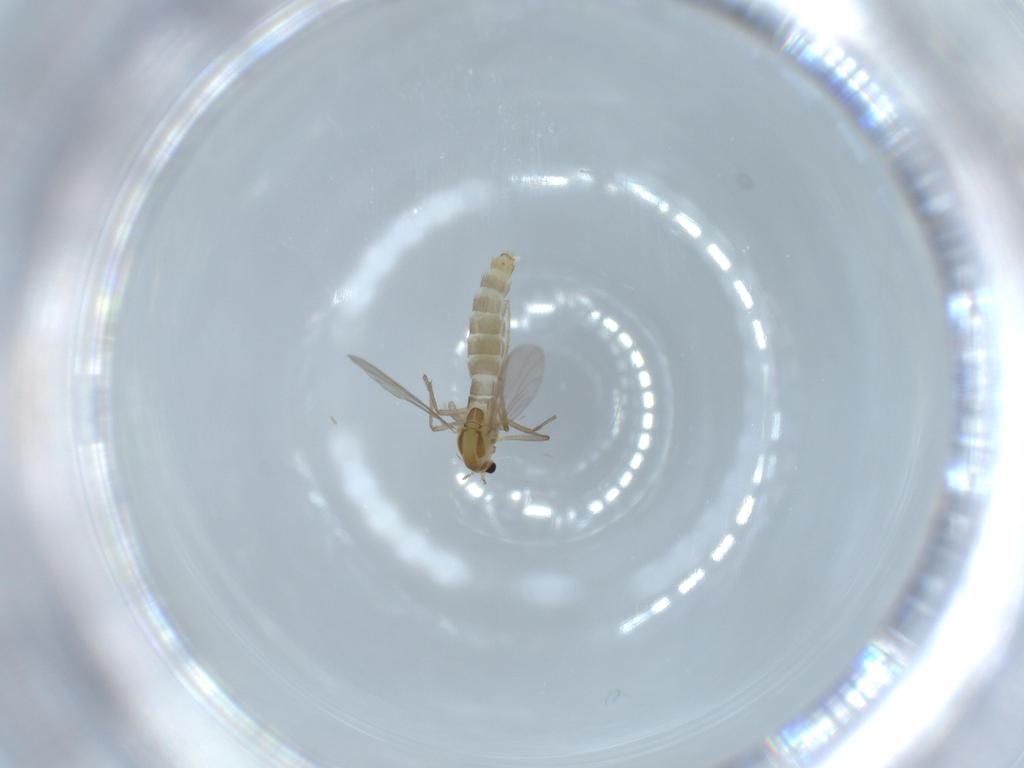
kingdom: Animalia
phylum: Arthropoda
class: Insecta
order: Diptera
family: Chironomidae
